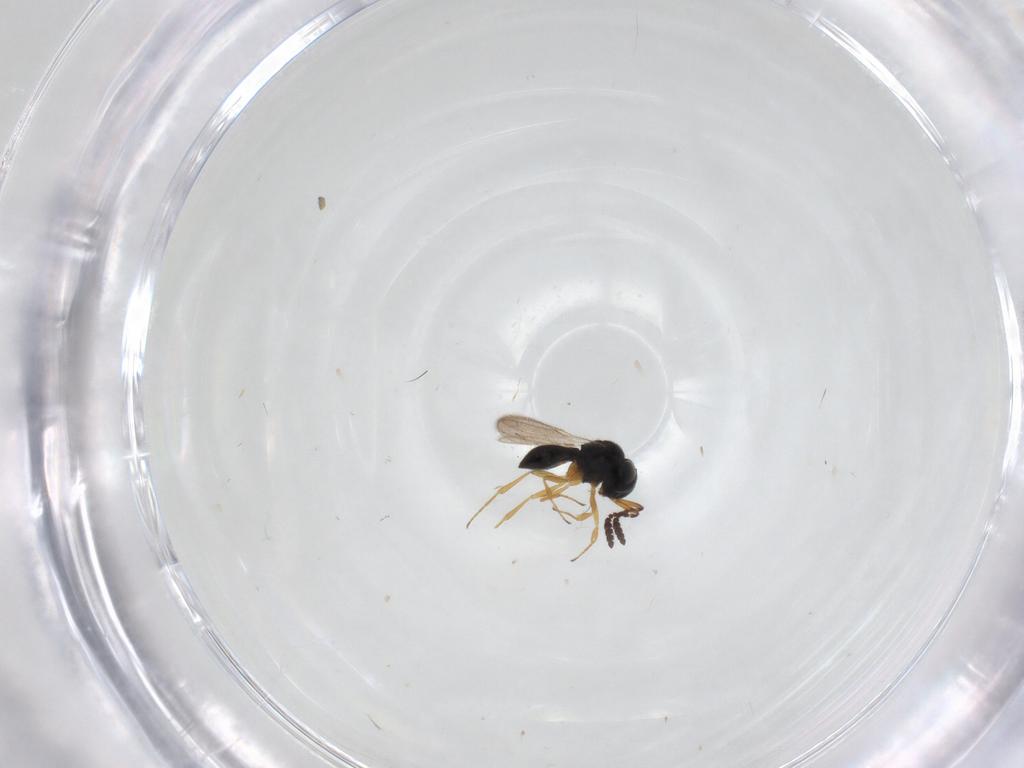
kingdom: Animalia
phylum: Arthropoda
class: Insecta
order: Hymenoptera
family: Scelionidae
